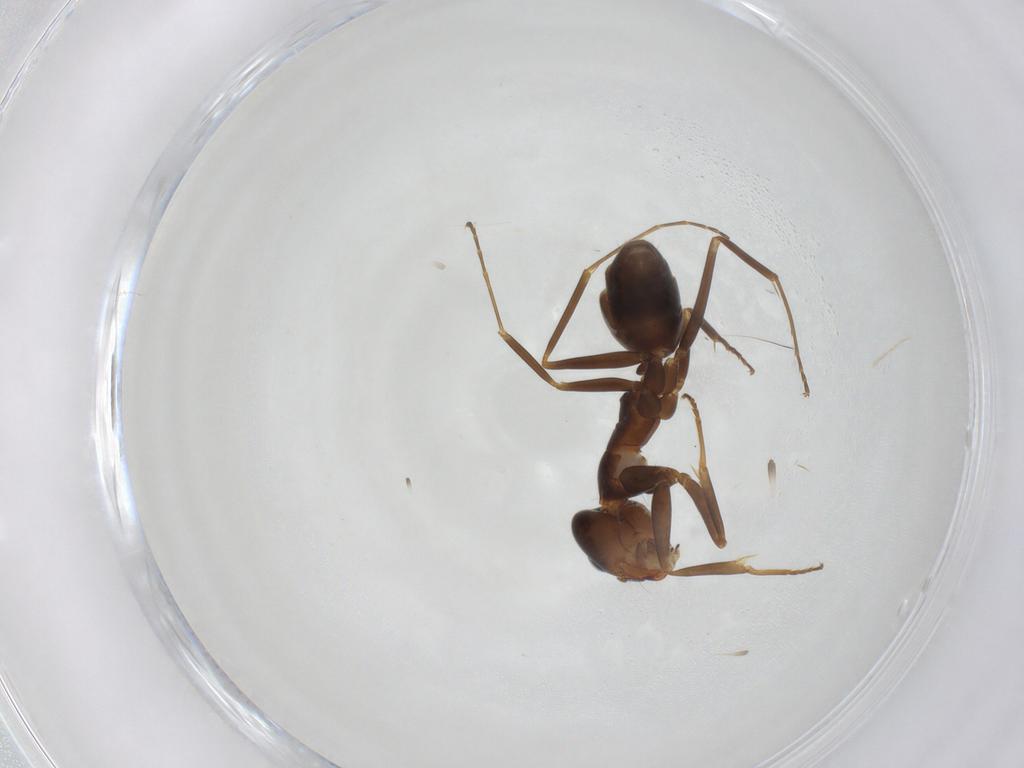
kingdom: Animalia
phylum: Arthropoda
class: Insecta
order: Hymenoptera
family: Formicidae
